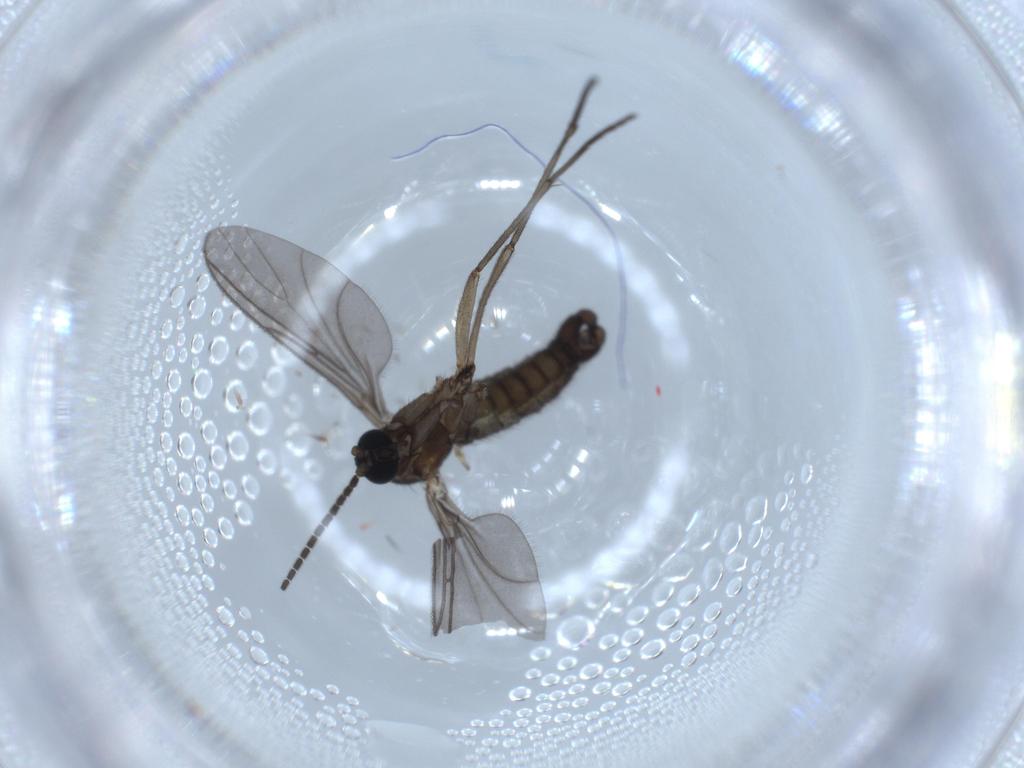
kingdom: Animalia
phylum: Arthropoda
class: Insecta
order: Diptera
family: Sciaridae
